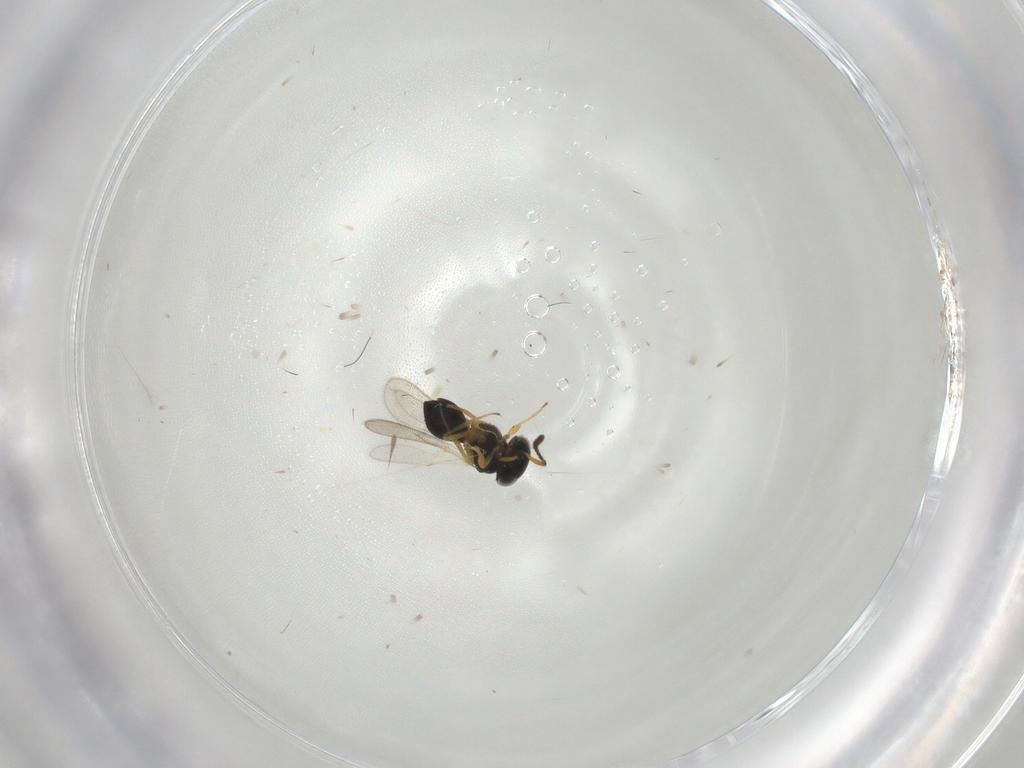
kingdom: Animalia
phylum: Arthropoda
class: Insecta
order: Hymenoptera
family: Scelionidae
